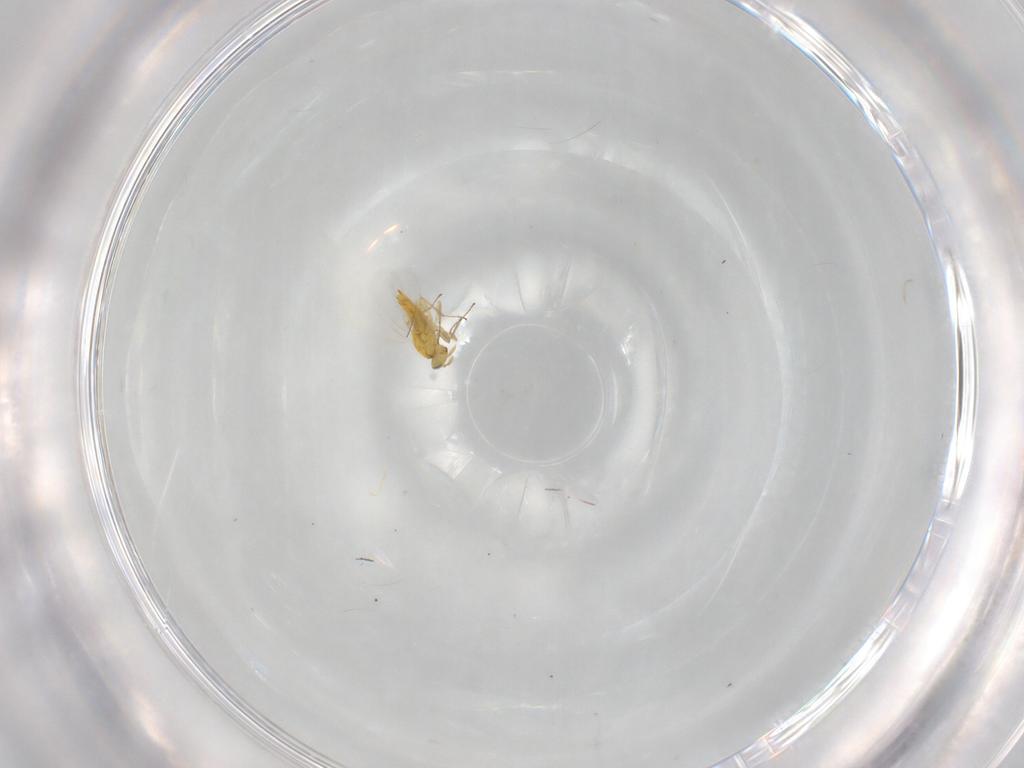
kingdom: Animalia
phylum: Arthropoda
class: Insecta
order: Hymenoptera
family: Aphelinidae
